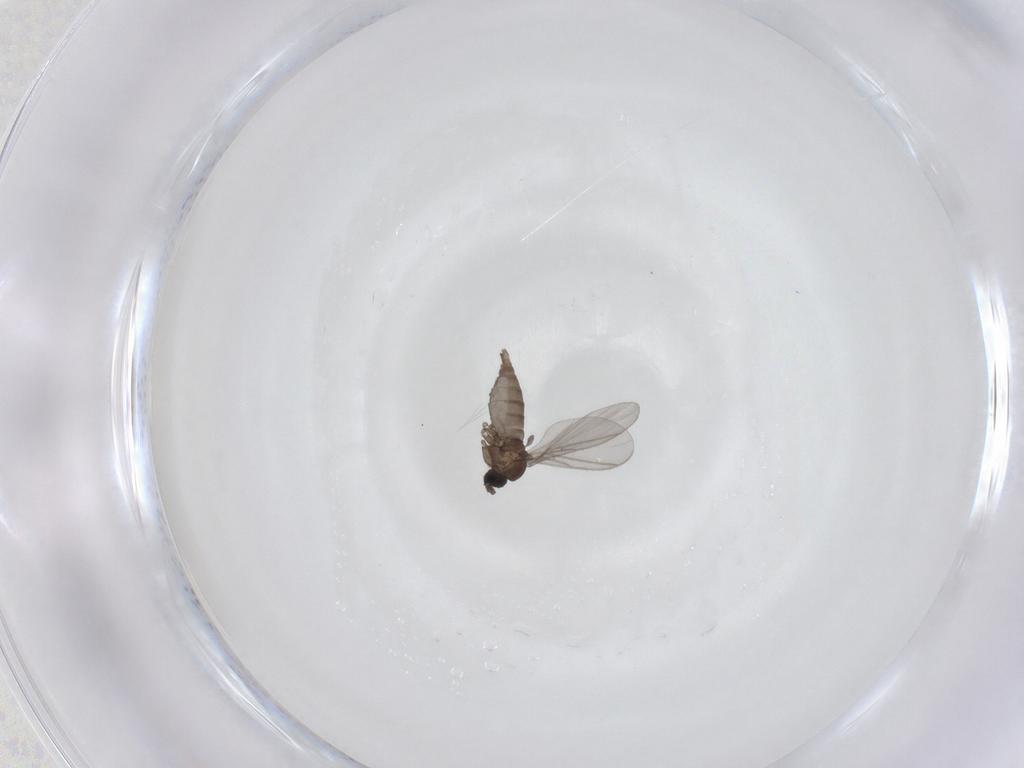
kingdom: Animalia
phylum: Arthropoda
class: Insecta
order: Diptera
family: Sciaridae
